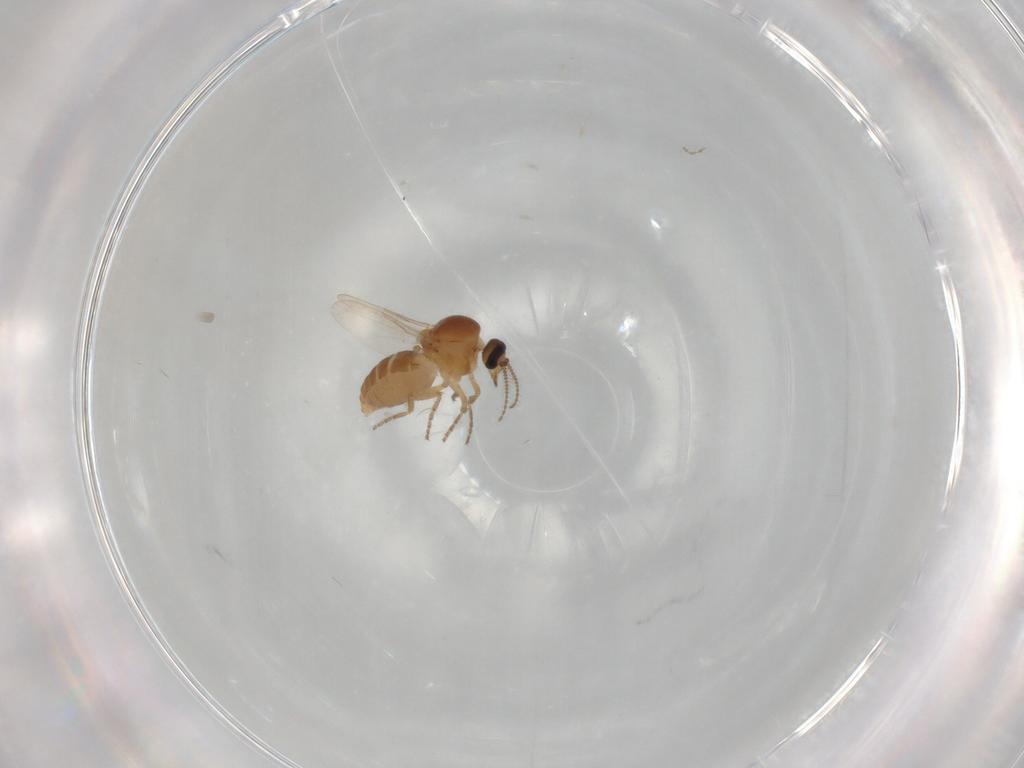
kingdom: Animalia
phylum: Arthropoda
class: Insecta
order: Diptera
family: Ceratopogonidae
